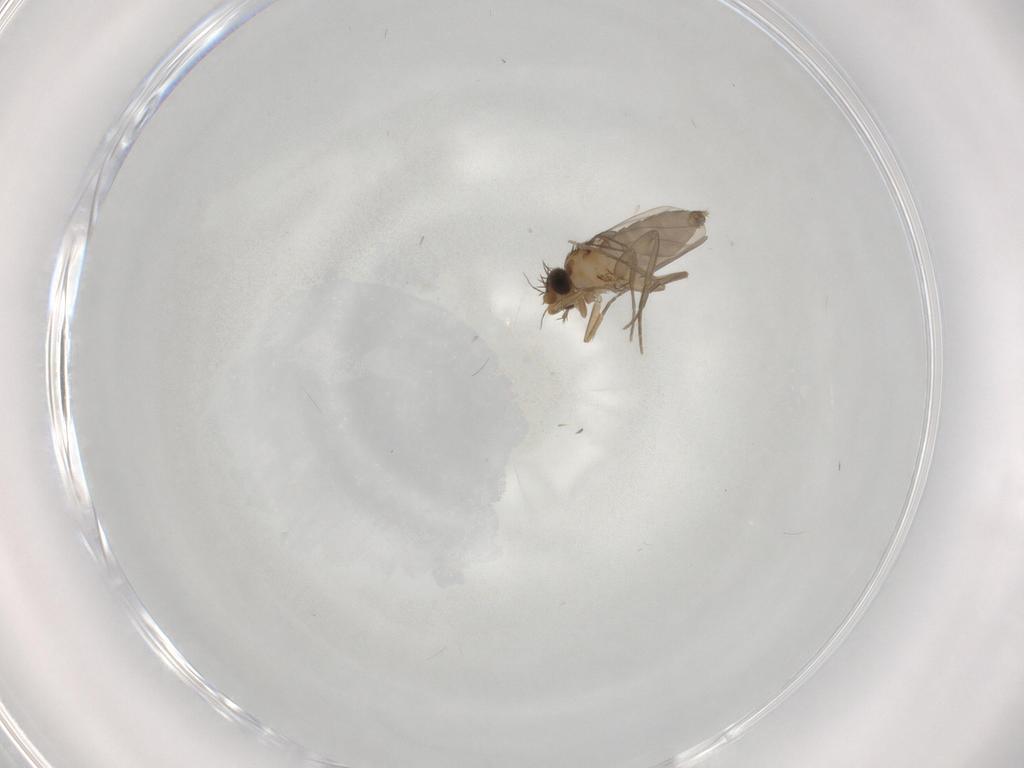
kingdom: Animalia
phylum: Arthropoda
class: Insecta
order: Diptera
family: Phoridae
